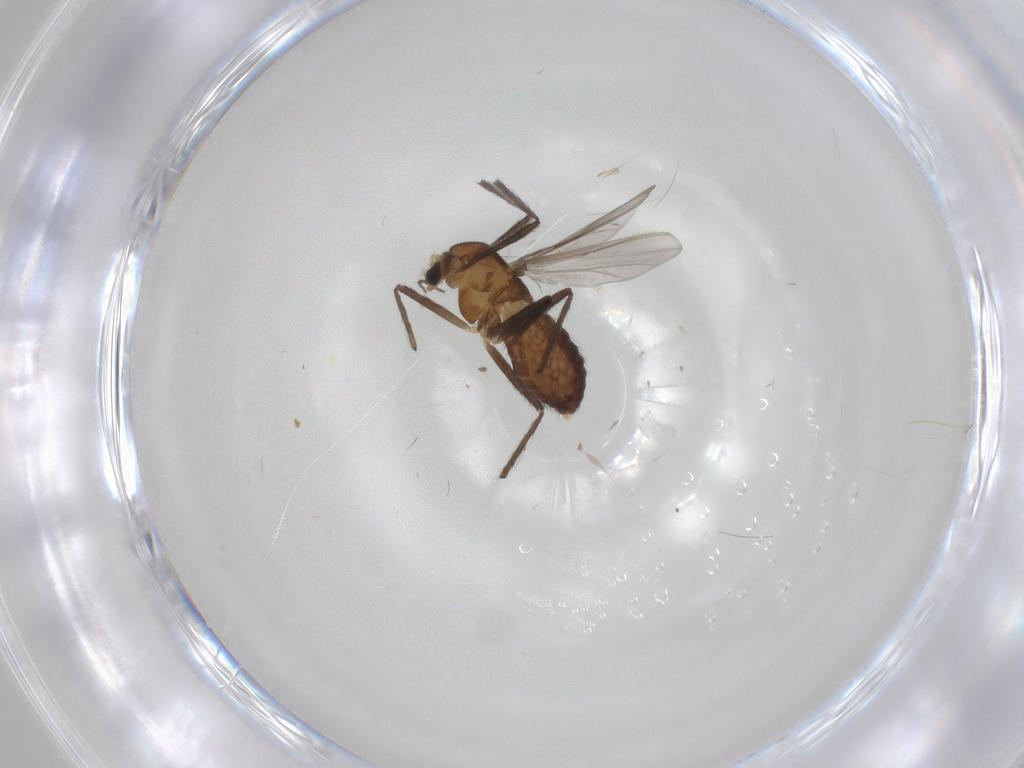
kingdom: Animalia
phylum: Arthropoda
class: Insecta
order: Diptera
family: Chironomidae
